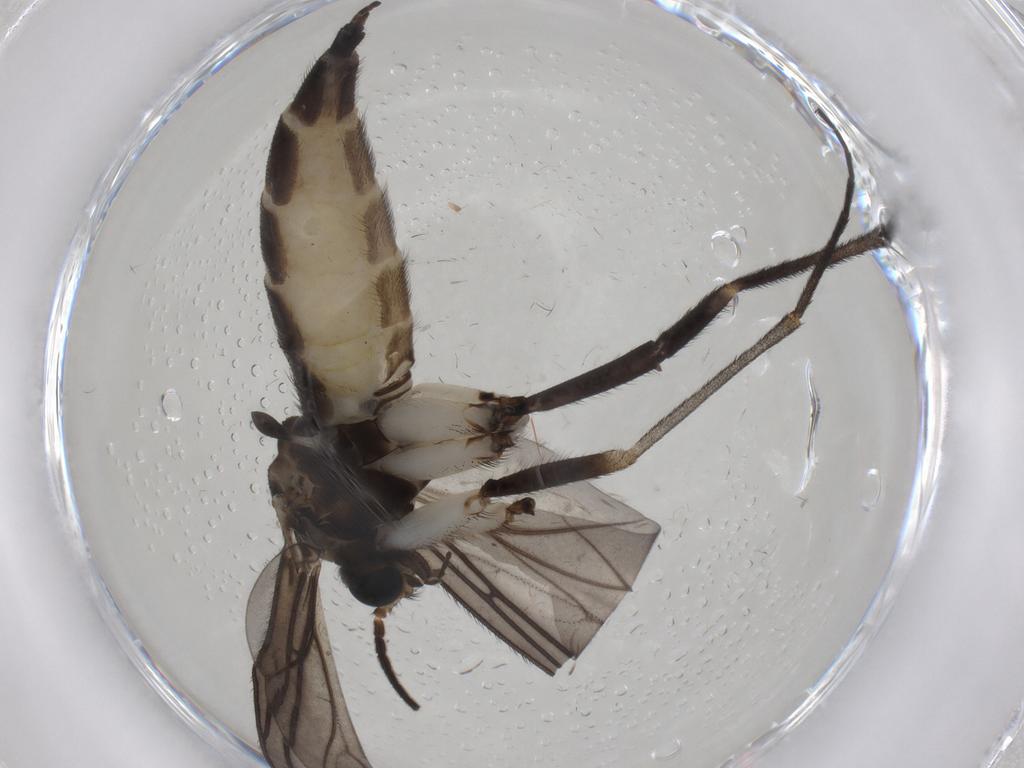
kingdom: Animalia
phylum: Arthropoda
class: Insecta
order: Diptera
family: Sciaridae
